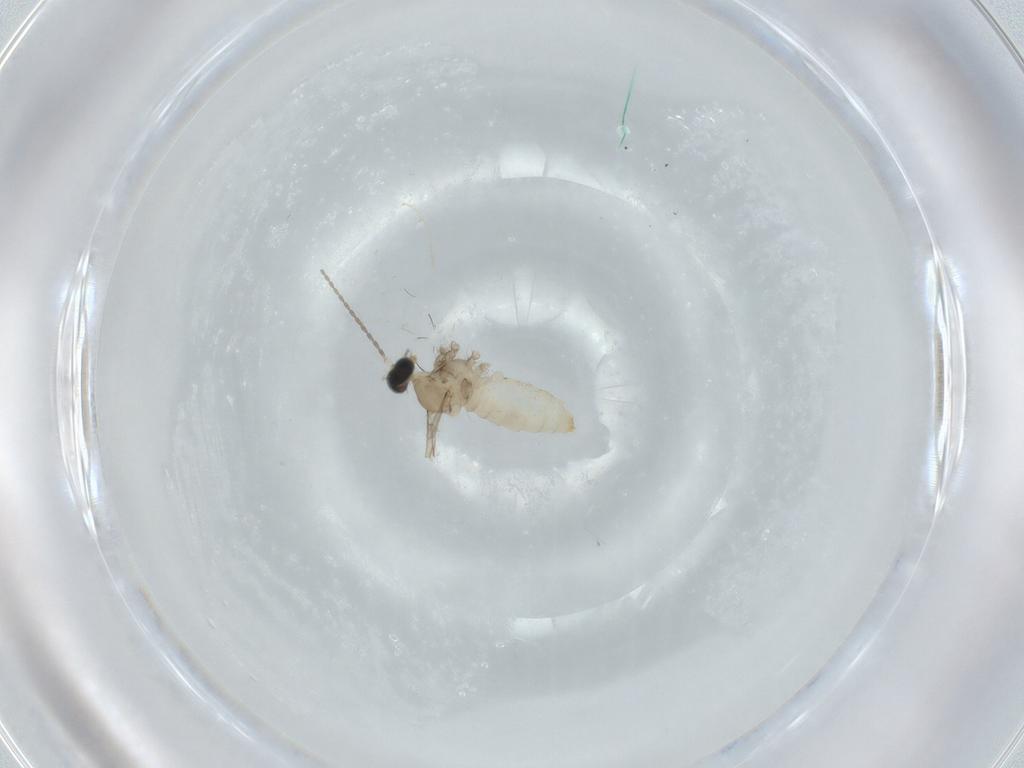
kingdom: Animalia
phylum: Arthropoda
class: Insecta
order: Diptera
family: Cecidomyiidae
